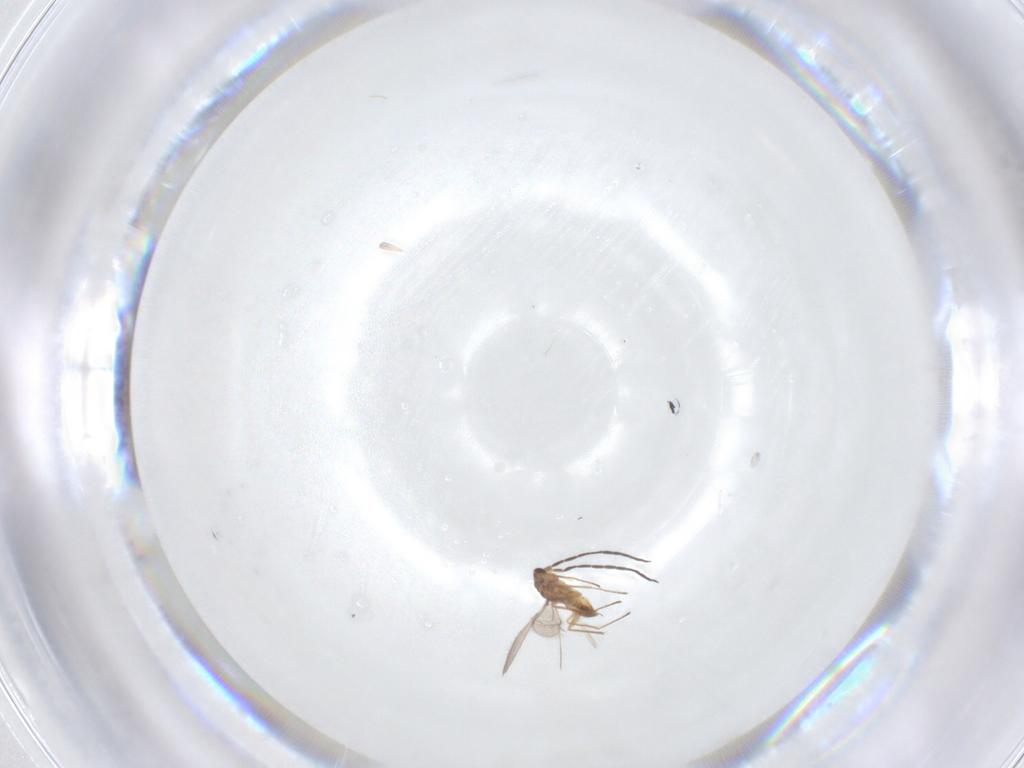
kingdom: Animalia
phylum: Arthropoda
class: Insecta
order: Hymenoptera
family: Mymaridae
